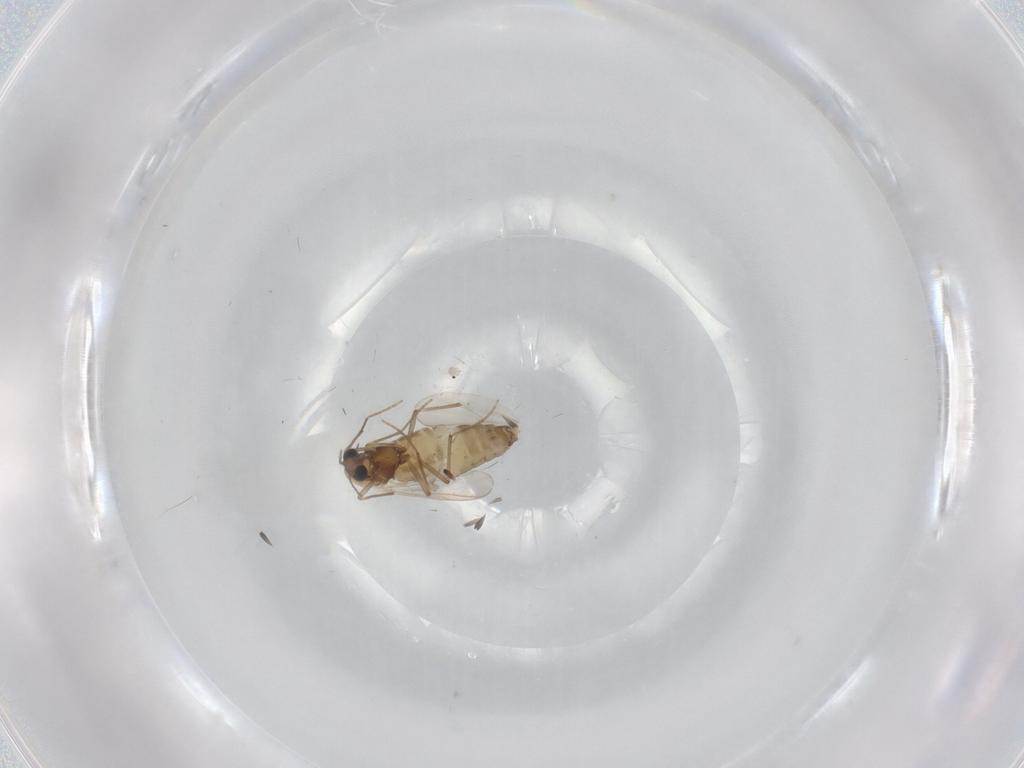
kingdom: Animalia
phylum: Arthropoda
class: Insecta
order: Diptera
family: Chironomidae
